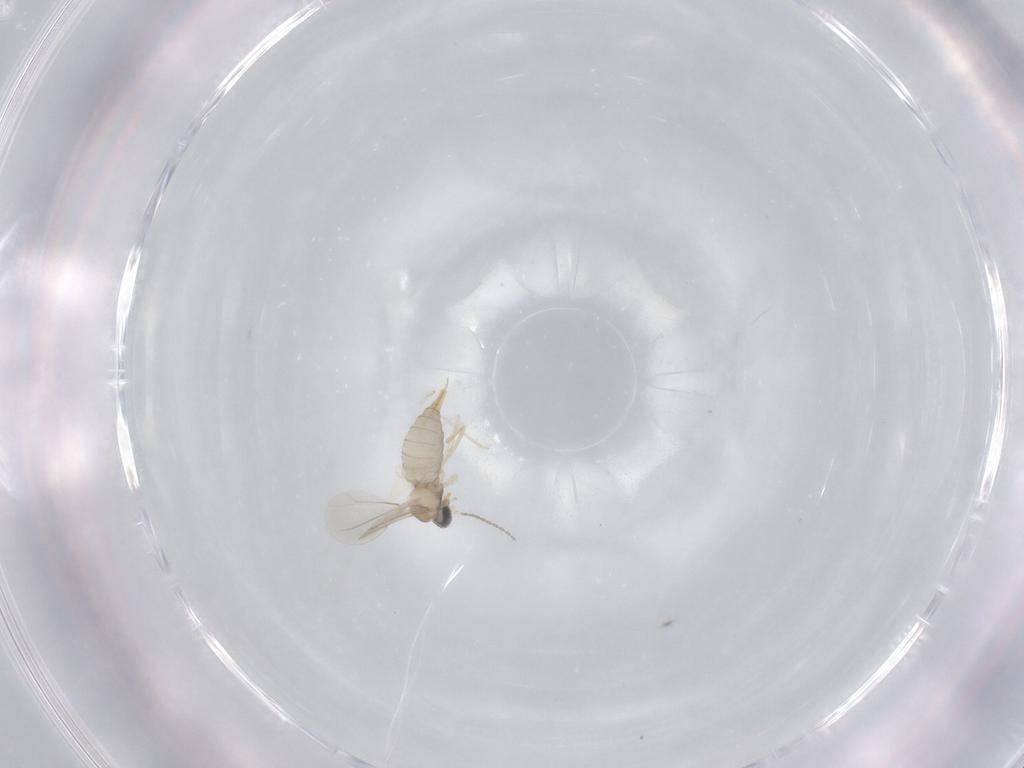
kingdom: Animalia
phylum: Arthropoda
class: Insecta
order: Diptera
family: Cecidomyiidae
